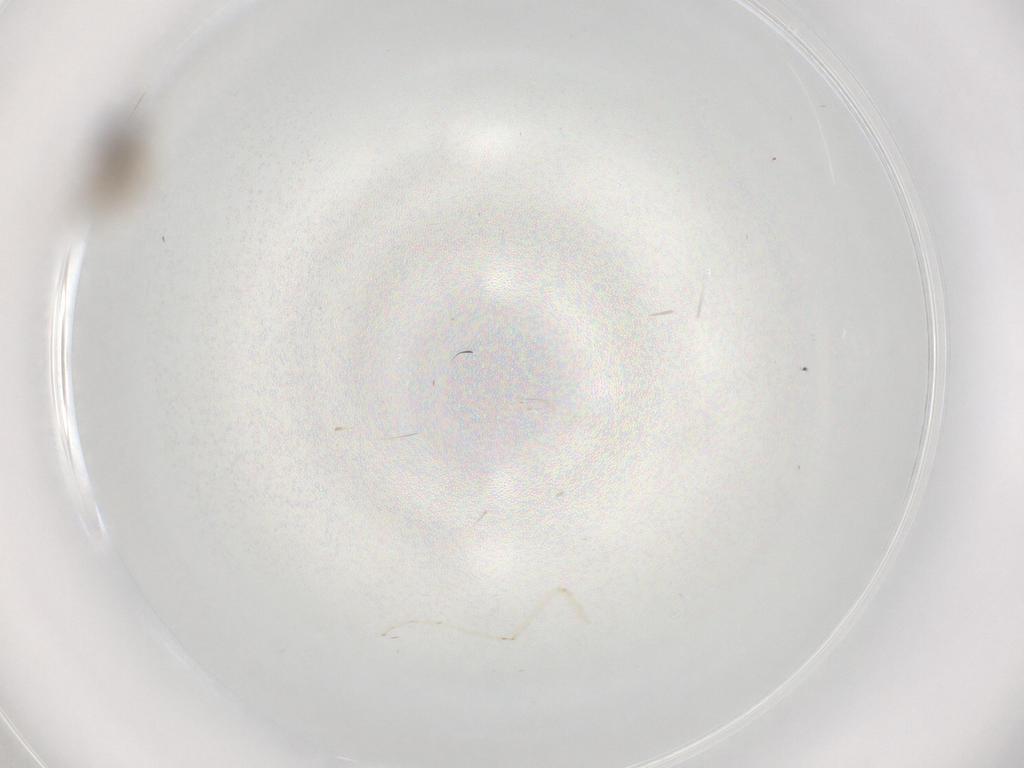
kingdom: Animalia
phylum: Arthropoda
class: Insecta
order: Diptera
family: Cecidomyiidae
